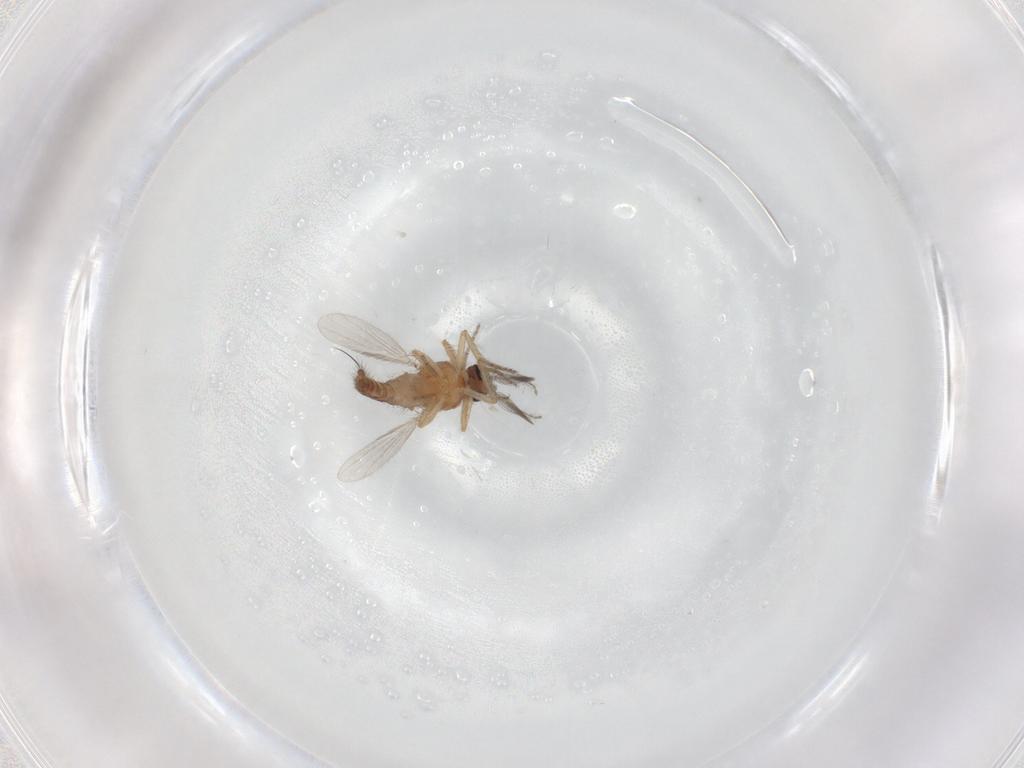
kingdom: Animalia
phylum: Arthropoda
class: Insecta
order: Diptera
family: Ceratopogonidae
